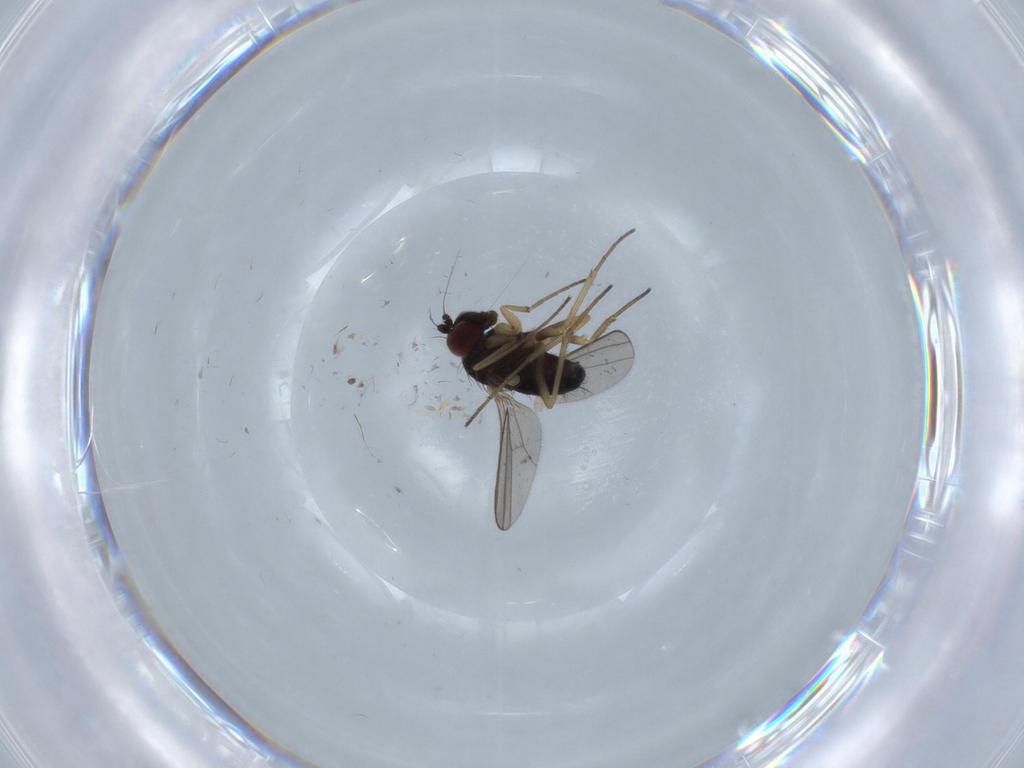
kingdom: Animalia
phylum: Arthropoda
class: Insecta
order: Diptera
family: Dolichopodidae
